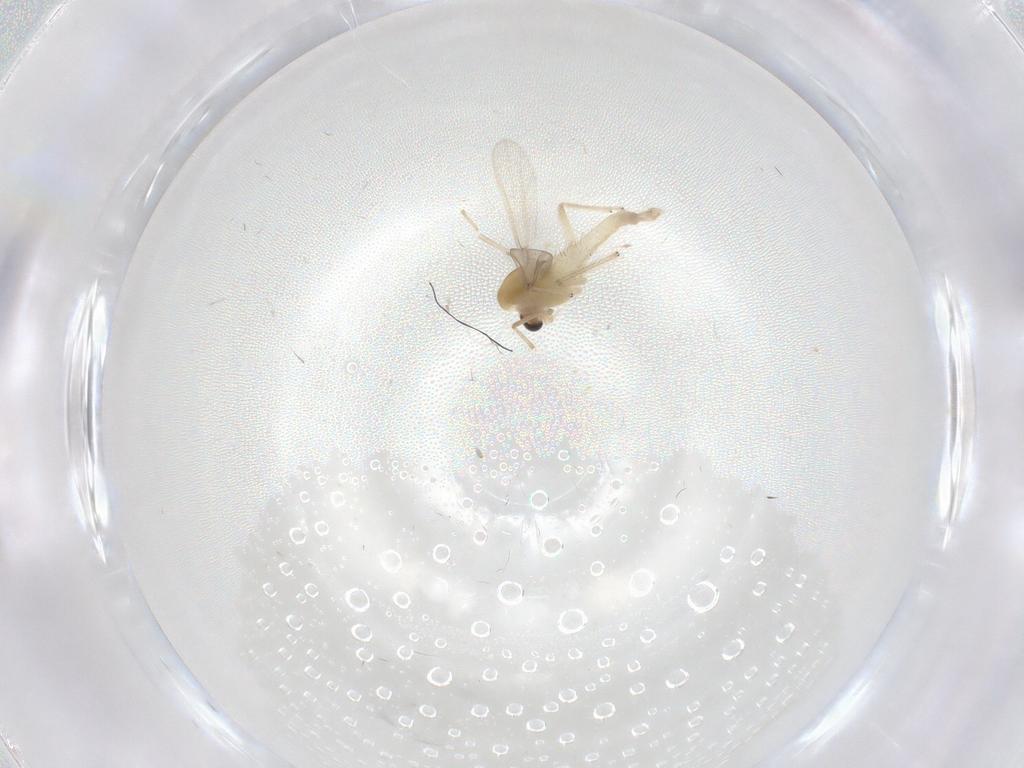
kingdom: Animalia
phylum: Arthropoda
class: Insecta
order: Diptera
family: Chironomidae
